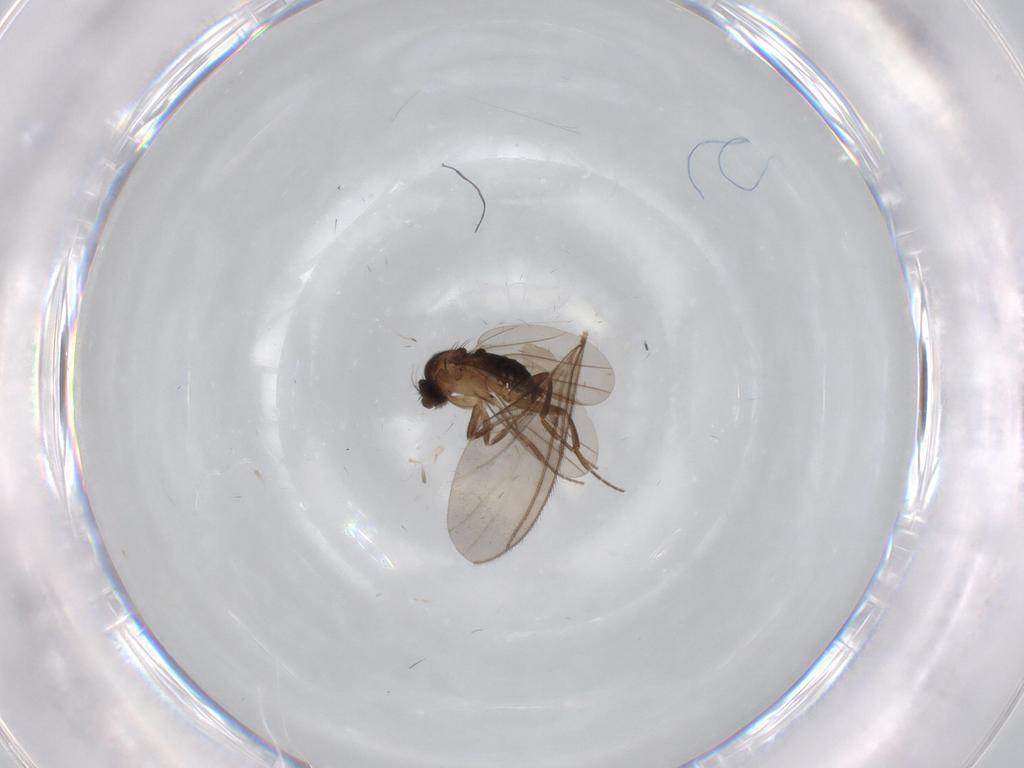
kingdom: Animalia
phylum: Arthropoda
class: Insecta
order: Diptera
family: Phoridae
